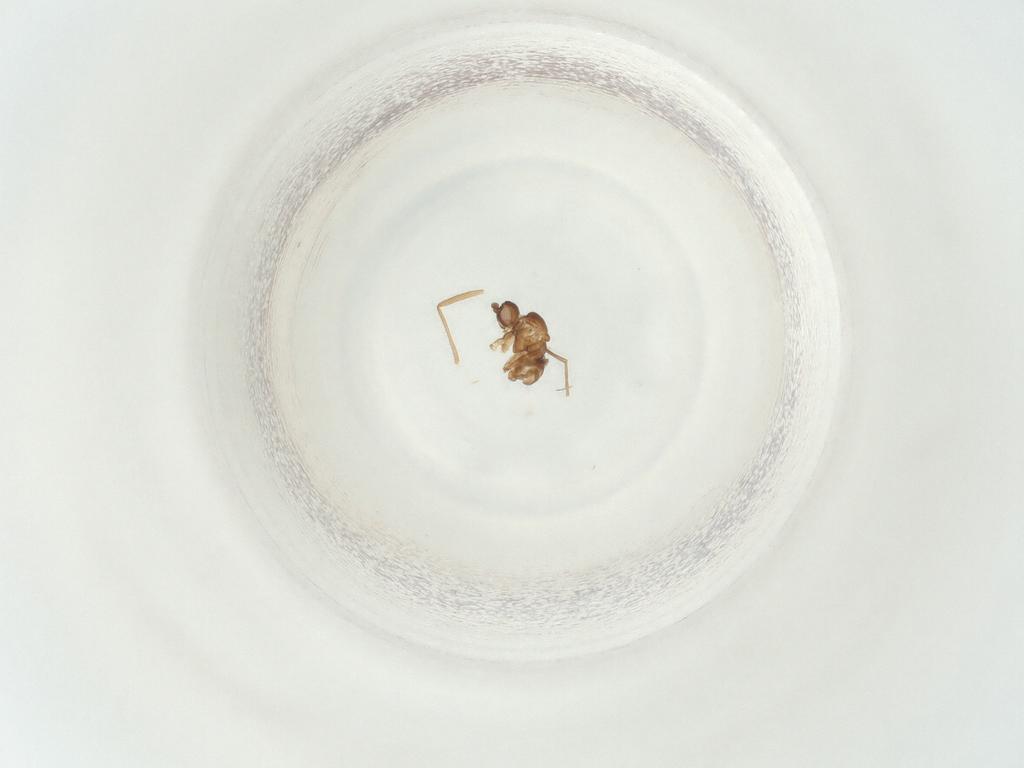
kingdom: Animalia
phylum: Arthropoda
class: Insecta
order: Diptera
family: Sciaridae
